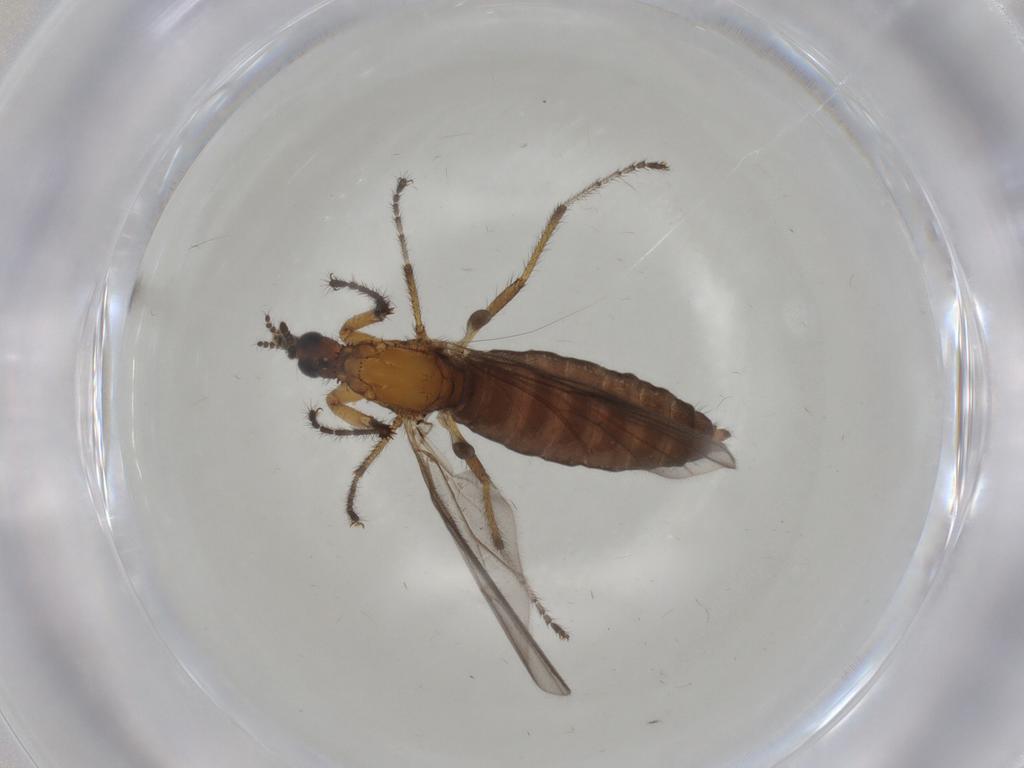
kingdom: Animalia
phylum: Arthropoda
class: Insecta
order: Diptera
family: Bibionidae
